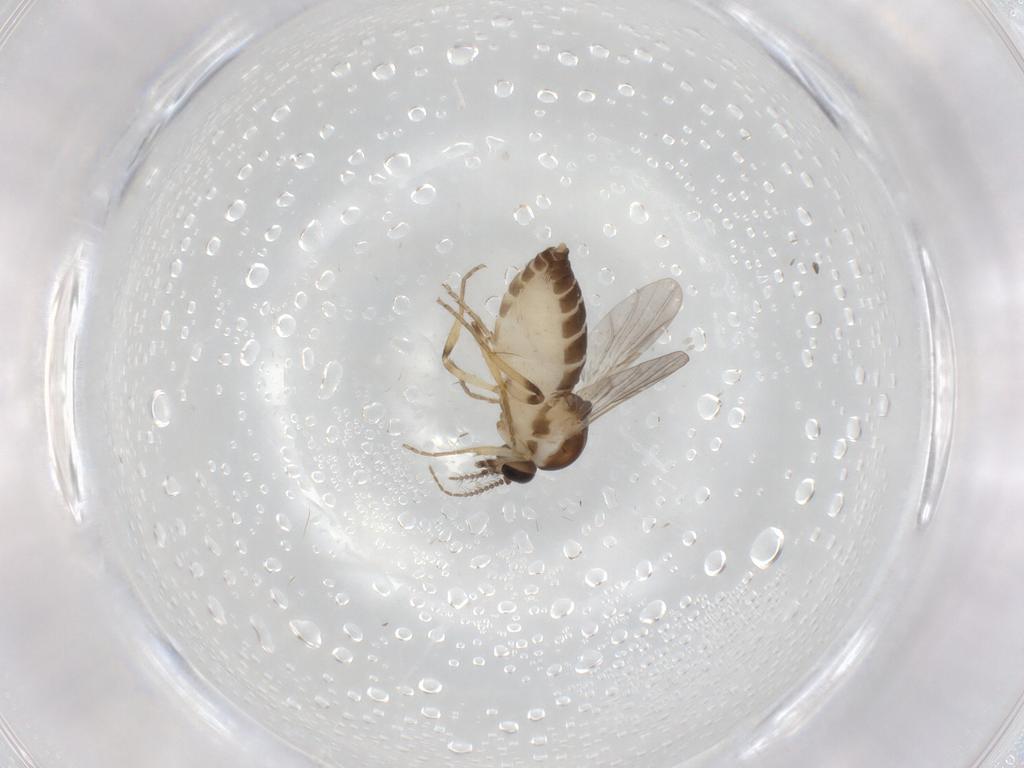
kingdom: Animalia
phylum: Arthropoda
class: Insecta
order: Diptera
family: Ceratopogonidae
